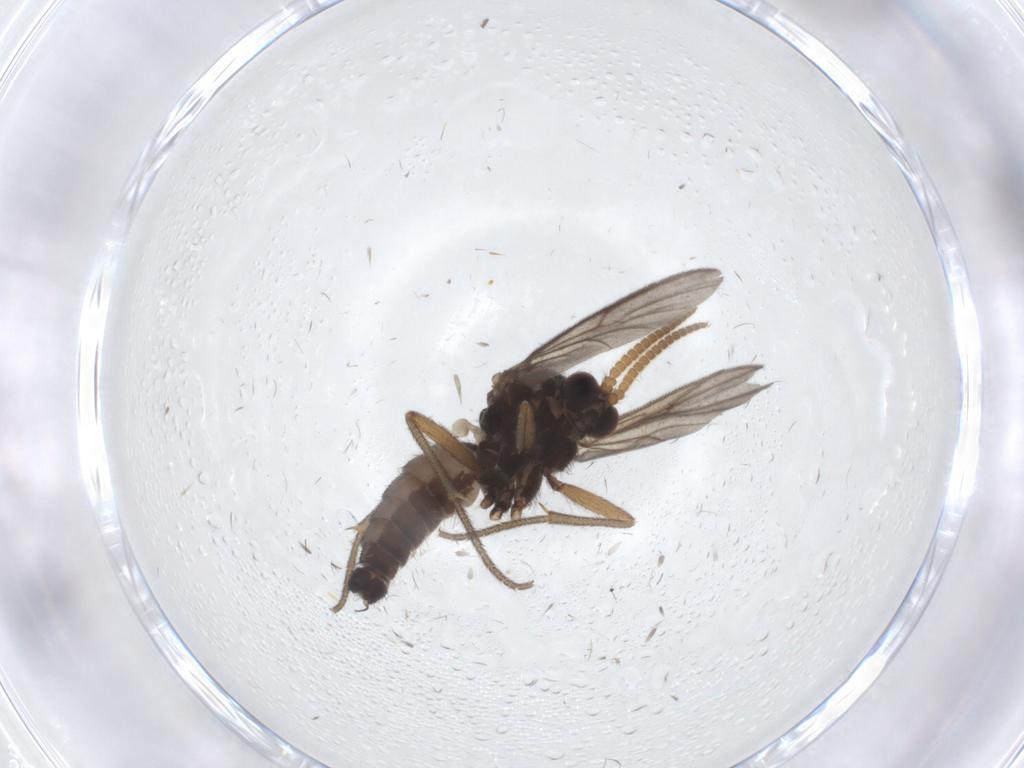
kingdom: Animalia
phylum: Arthropoda
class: Insecta
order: Diptera
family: Mycetophilidae
